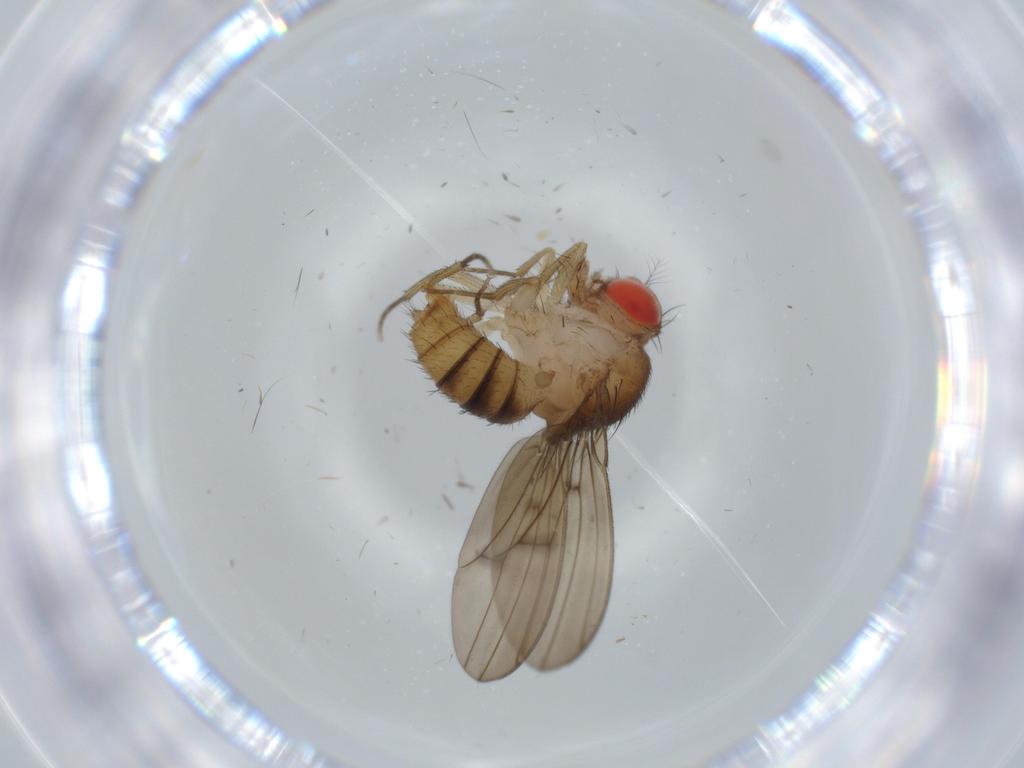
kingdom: Animalia
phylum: Arthropoda
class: Insecta
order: Diptera
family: Drosophilidae
